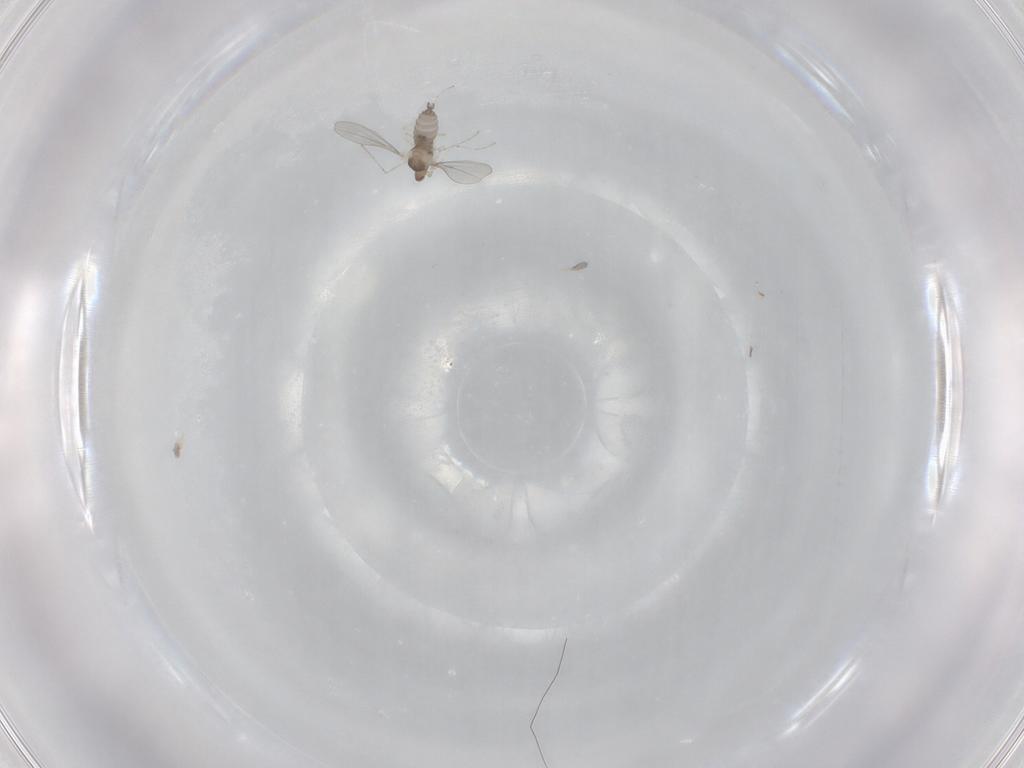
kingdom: Animalia
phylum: Arthropoda
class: Insecta
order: Diptera
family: Cecidomyiidae
